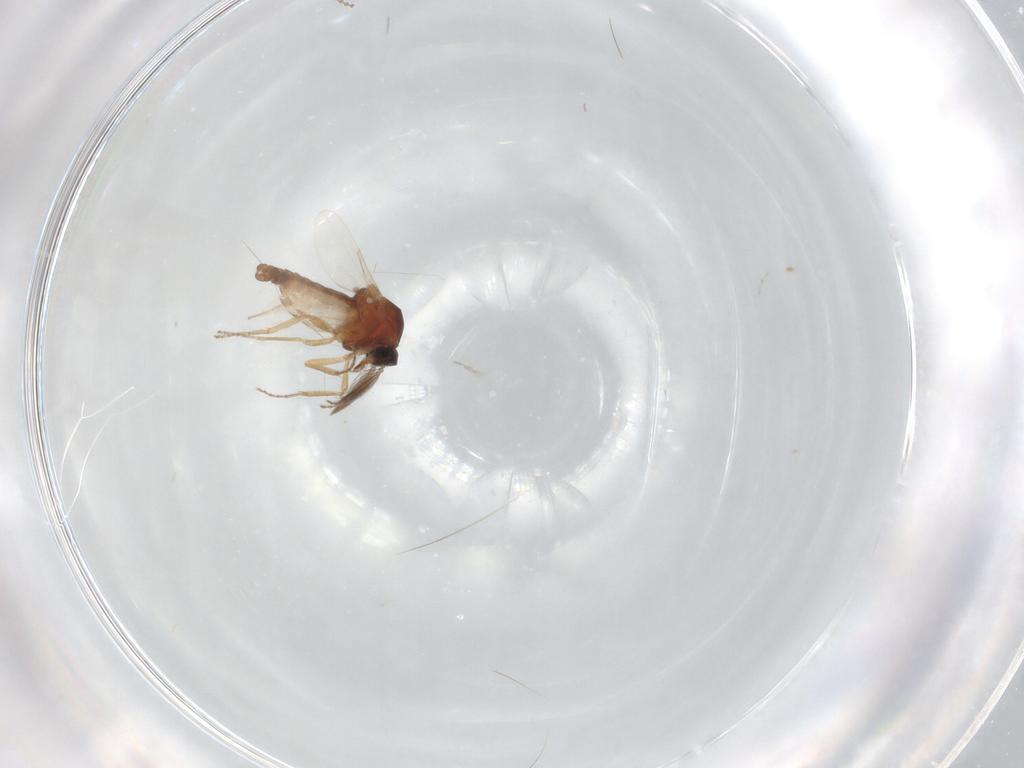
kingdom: Animalia
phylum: Arthropoda
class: Insecta
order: Diptera
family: Ceratopogonidae
